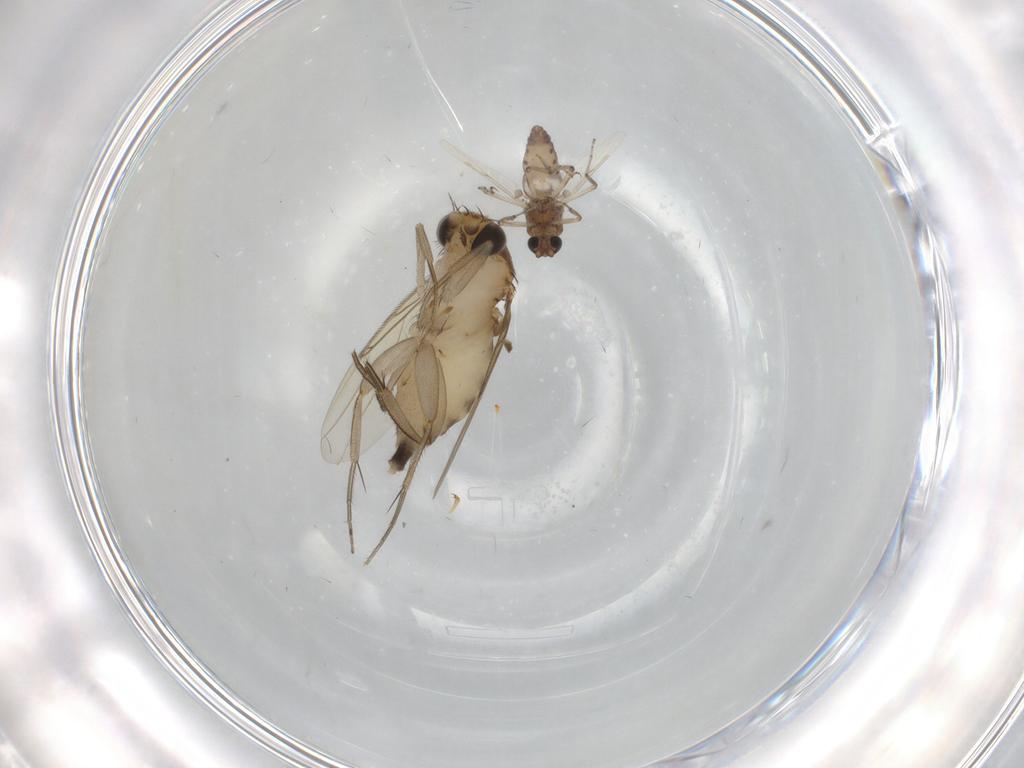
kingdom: Animalia
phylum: Arthropoda
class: Insecta
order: Diptera
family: Ceratopogonidae
